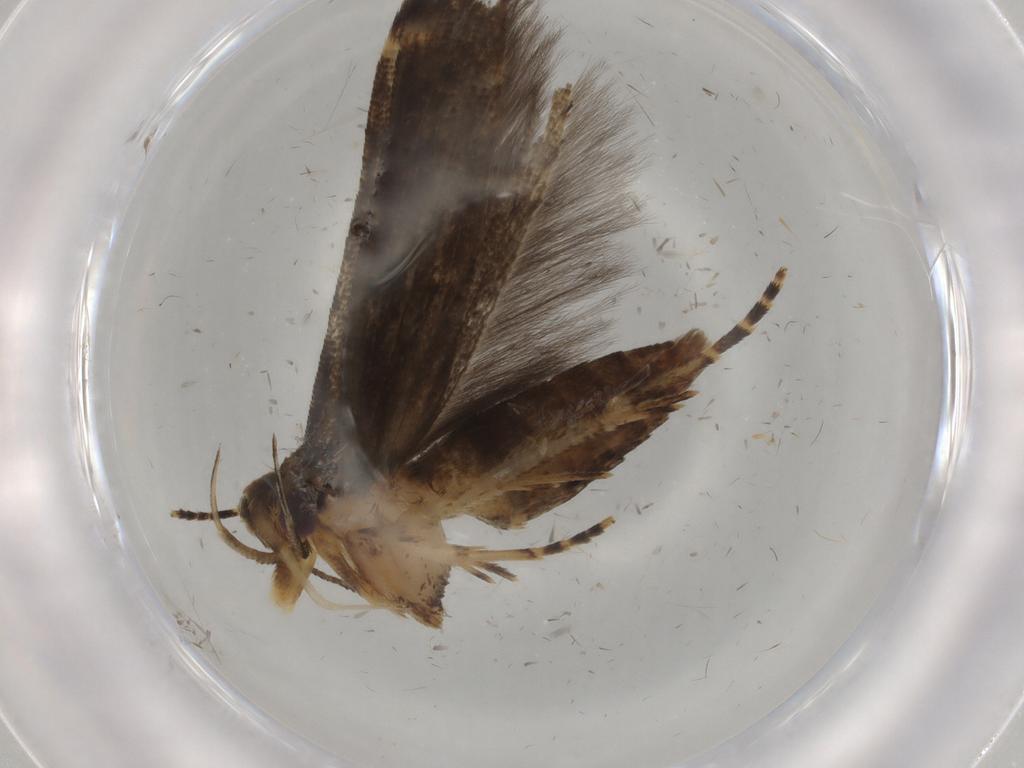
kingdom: Animalia
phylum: Arthropoda
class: Insecta
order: Lepidoptera
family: Cosmopterigidae
